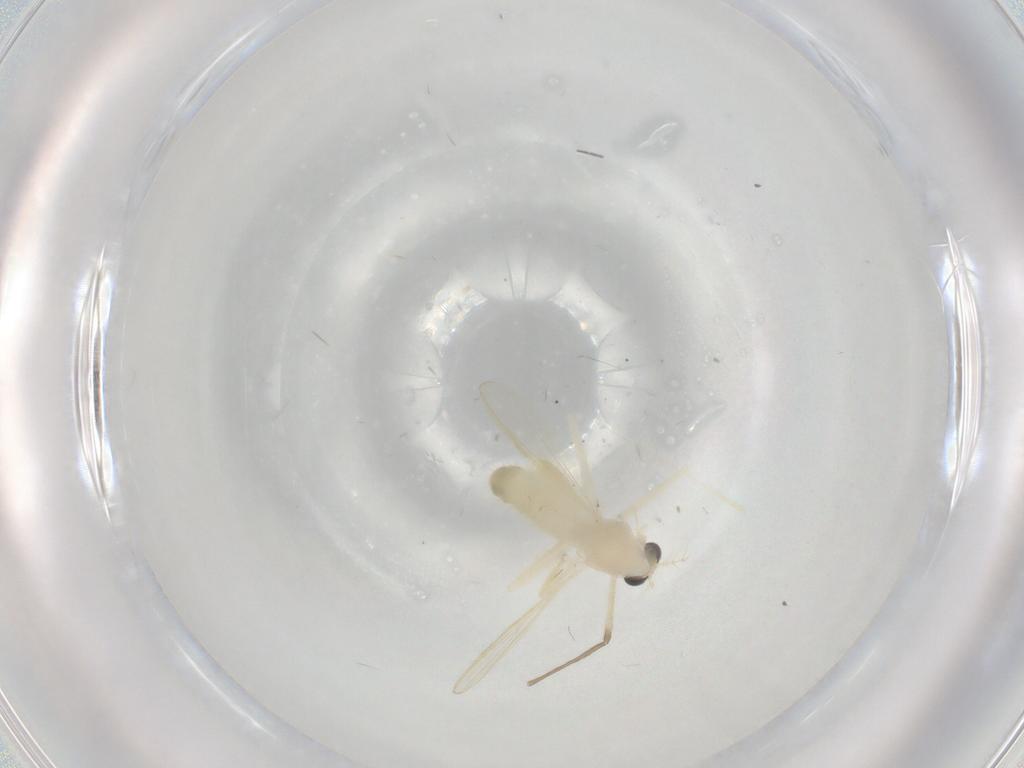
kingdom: Animalia
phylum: Arthropoda
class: Insecta
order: Diptera
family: Chironomidae
